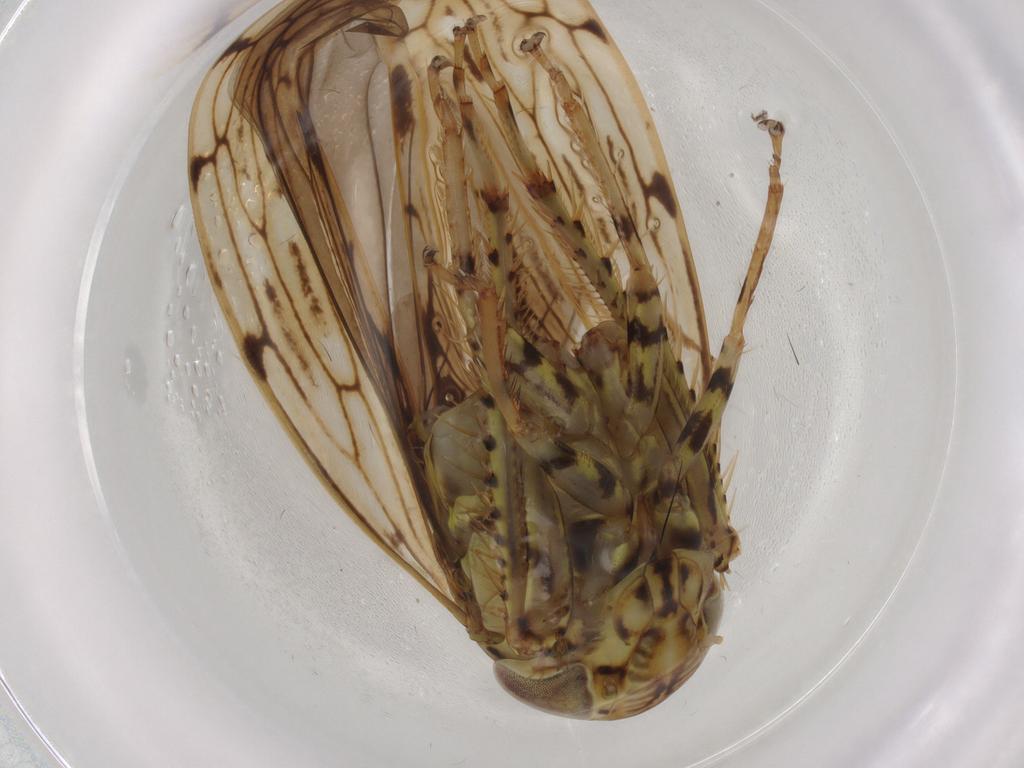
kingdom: Animalia
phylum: Arthropoda
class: Insecta
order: Hemiptera
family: Cicadellidae
